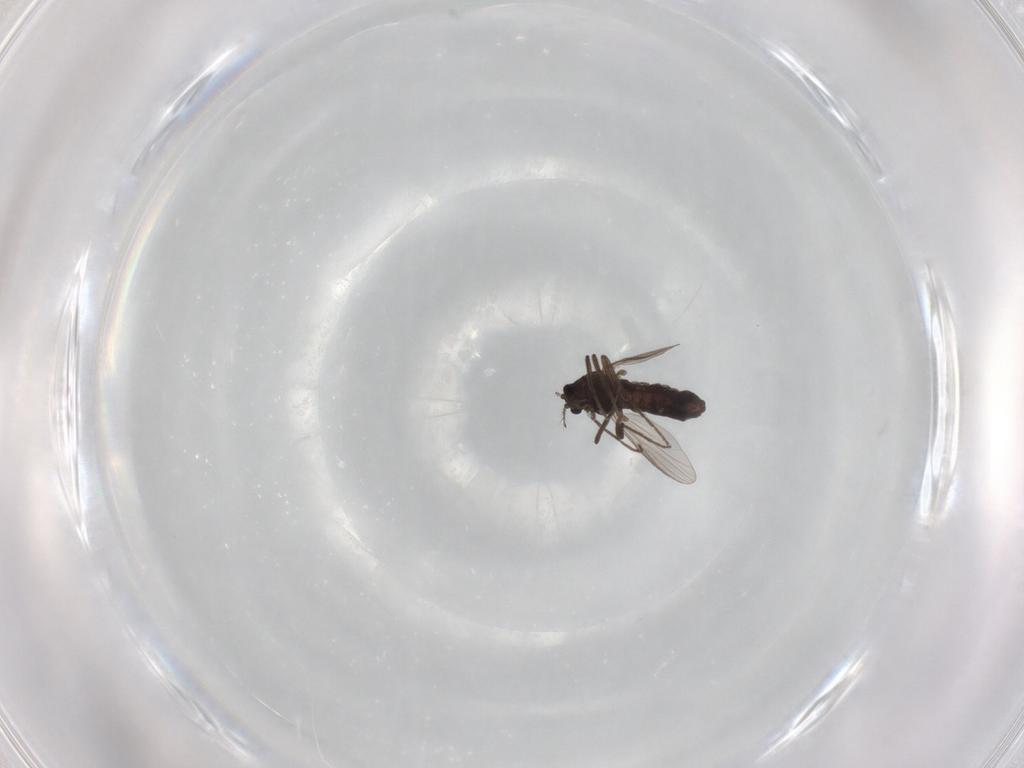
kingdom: Animalia
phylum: Arthropoda
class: Insecta
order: Diptera
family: Chironomidae
